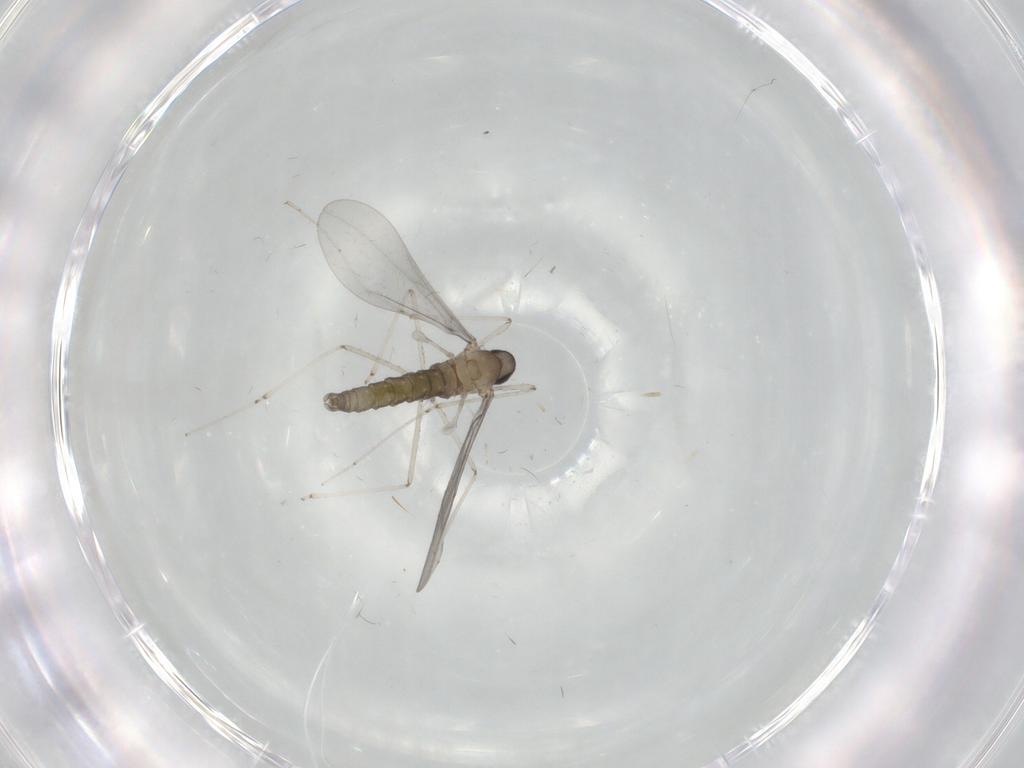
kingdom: Animalia
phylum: Arthropoda
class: Insecta
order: Diptera
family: Cecidomyiidae
